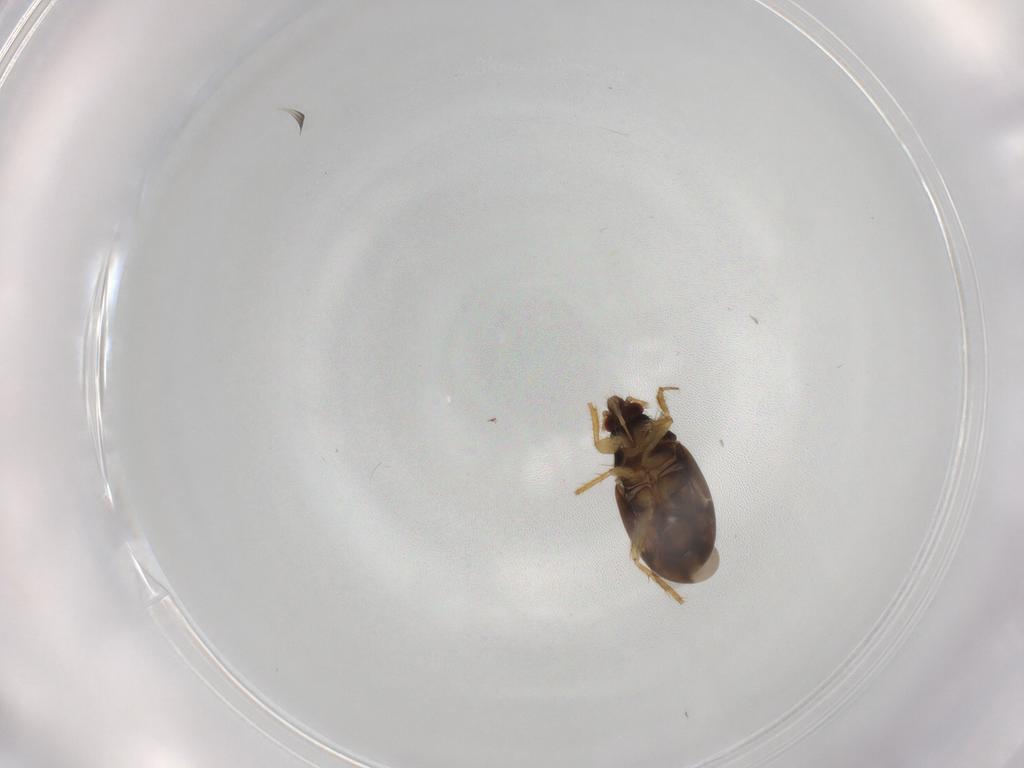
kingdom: Animalia
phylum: Arthropoda
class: Insecta
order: Hemiptera
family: Ceratocombidae
